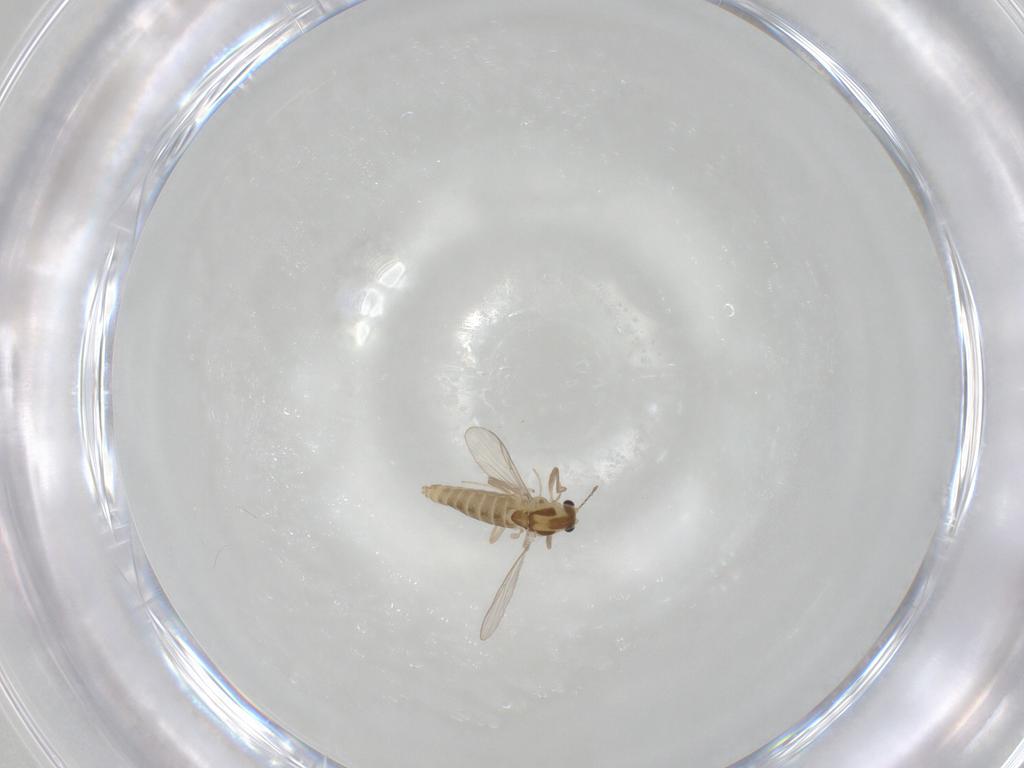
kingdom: Animalia
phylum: Arthropoda
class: Insecta
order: Diptera
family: Chironomidae
